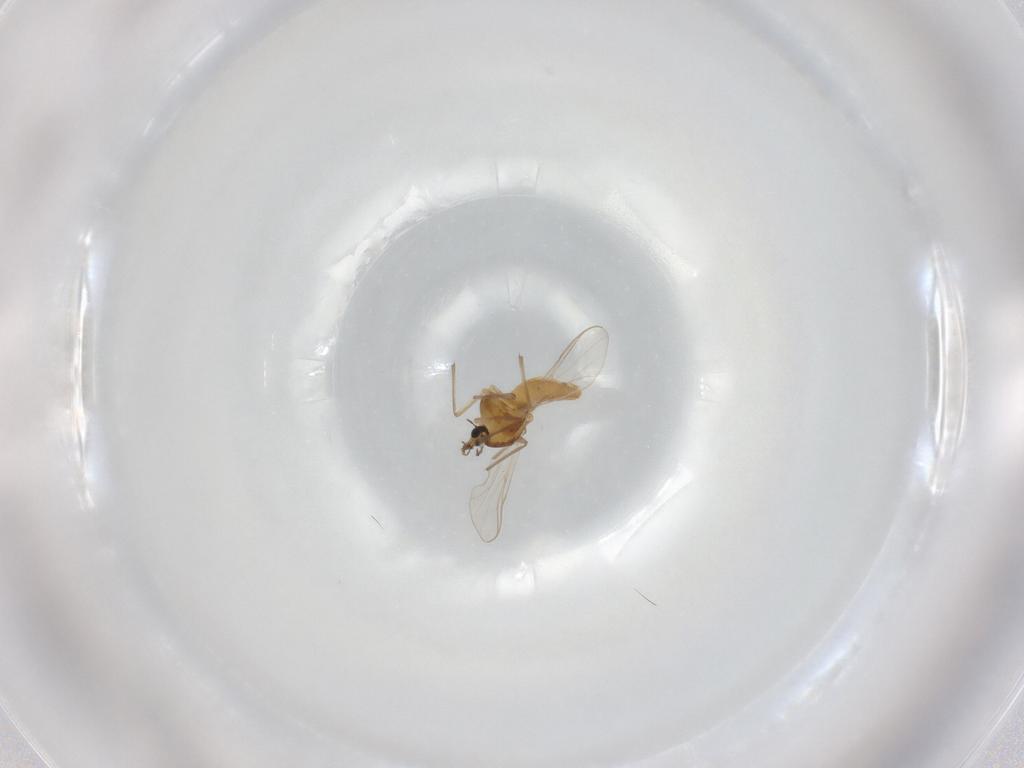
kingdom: Animalia
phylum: Arthropoda
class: Insecta
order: Diptera
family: Chironomidae
